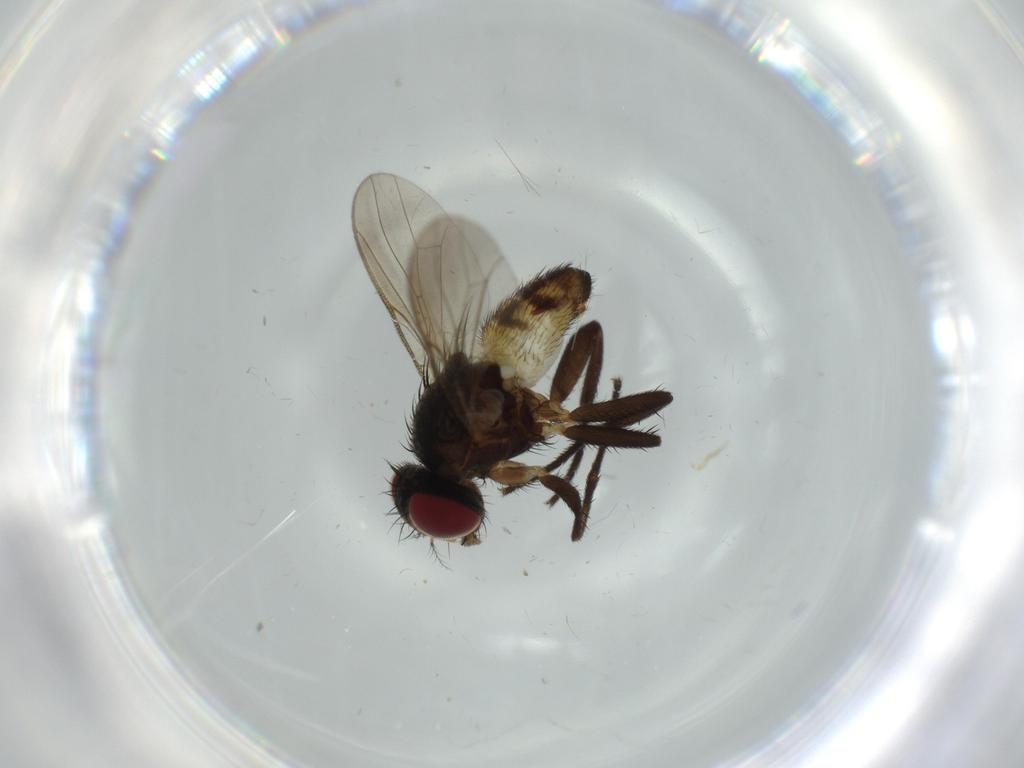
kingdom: Animalia
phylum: Arthropoda
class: Insecta
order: Diptera
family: Anthomyiidae
